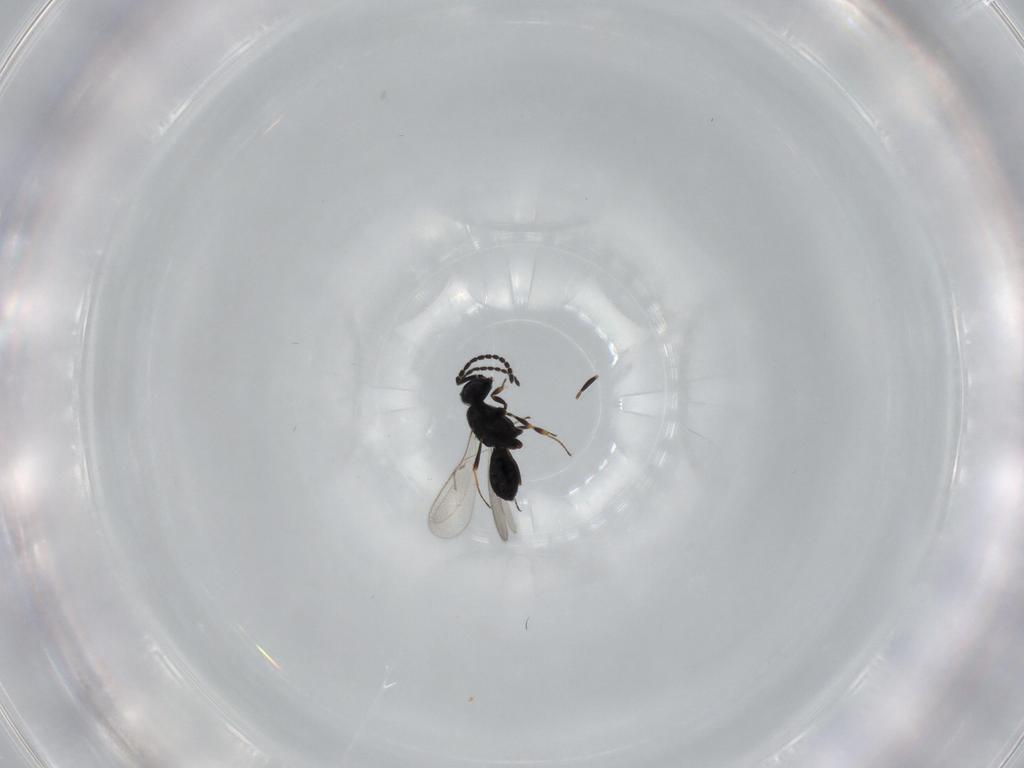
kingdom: Animalia
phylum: Arthropoda
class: Insecta
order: Hymenoptera
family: Scelionidae
